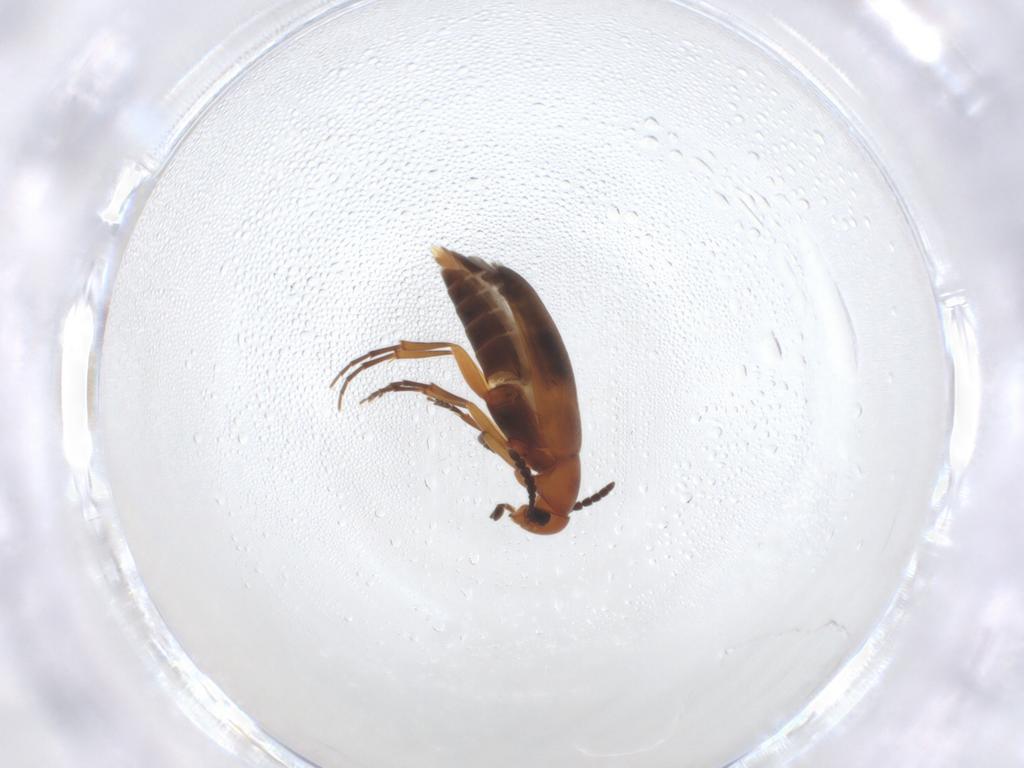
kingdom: Animalia
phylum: Arthropoda
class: Insecta
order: Coleoptera
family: Scraptiidae
